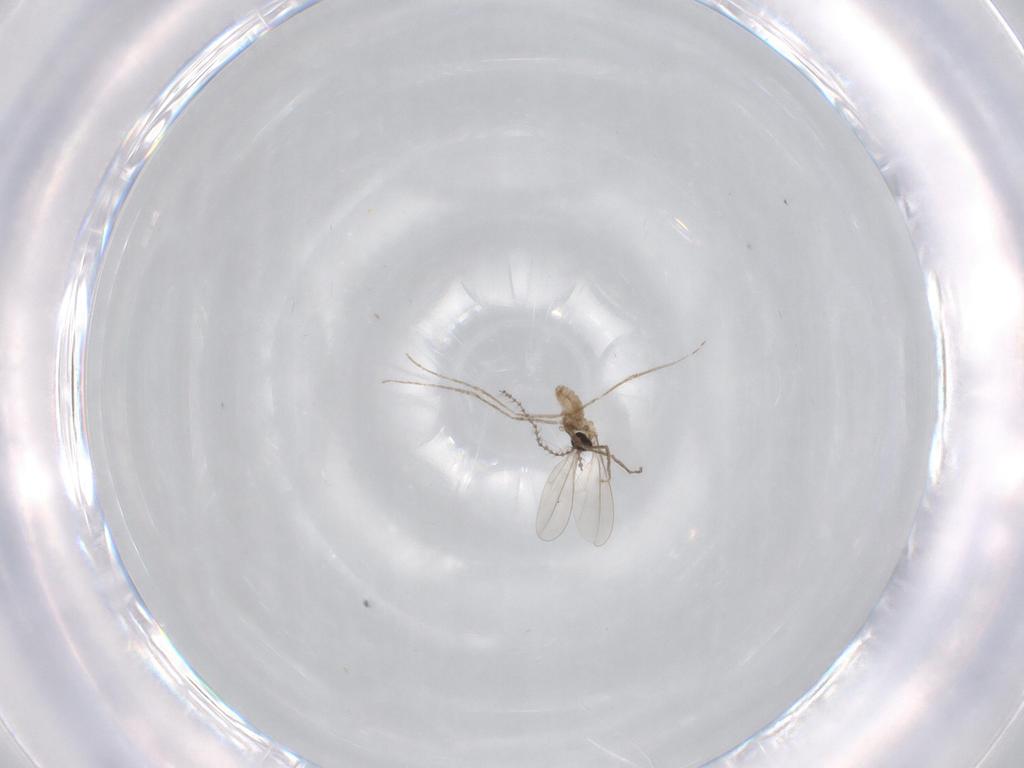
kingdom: Animalia
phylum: Arthropoda
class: Insecta
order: Diptera
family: Cecidomyiidae
